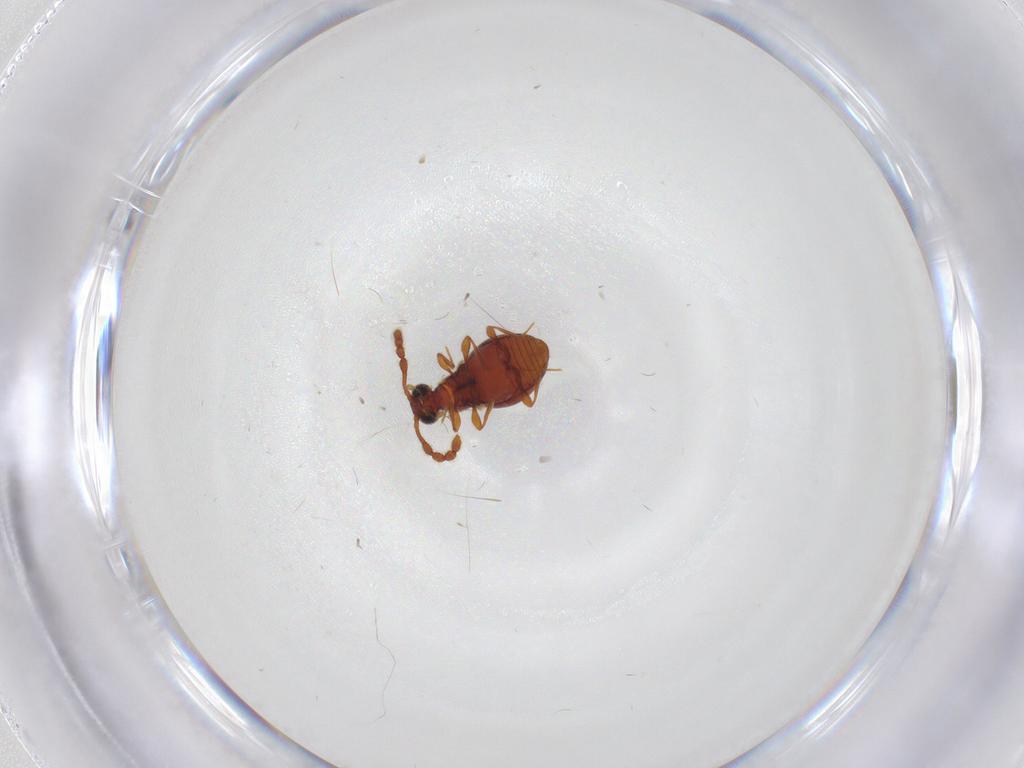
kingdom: Animalia
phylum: Arthropoda
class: Insecta
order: Coleoptera
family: Staphylinidae
